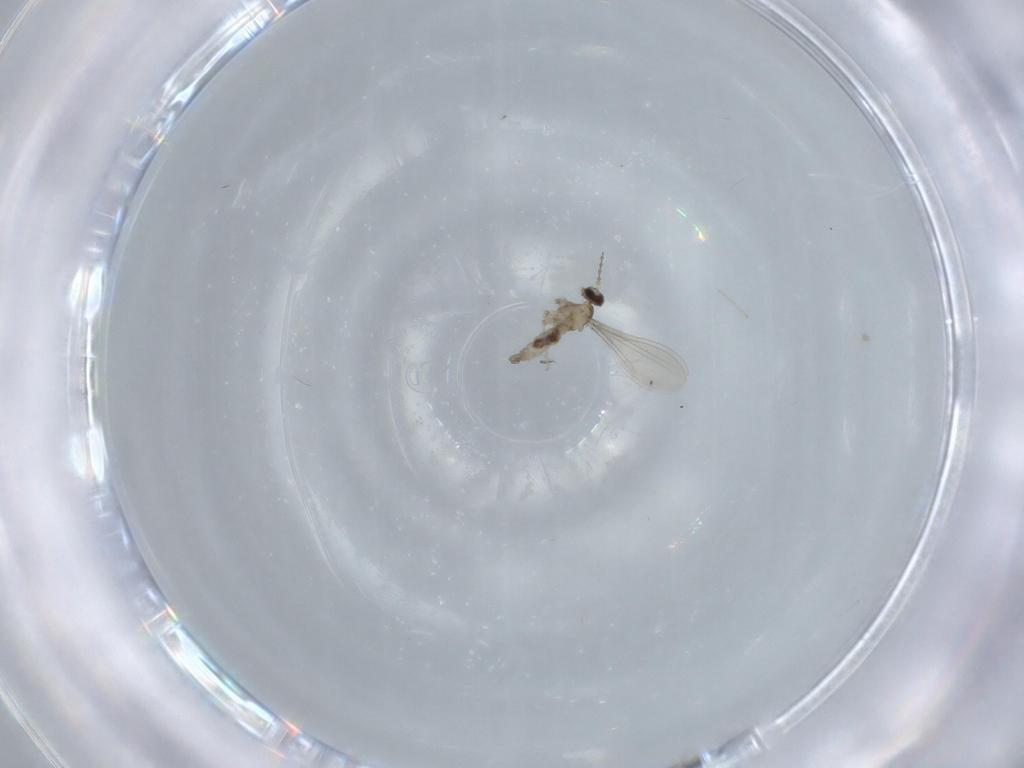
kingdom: Animalia
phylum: Arthropoda
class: Insecta
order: Diptera
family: Cecidomyiidae
